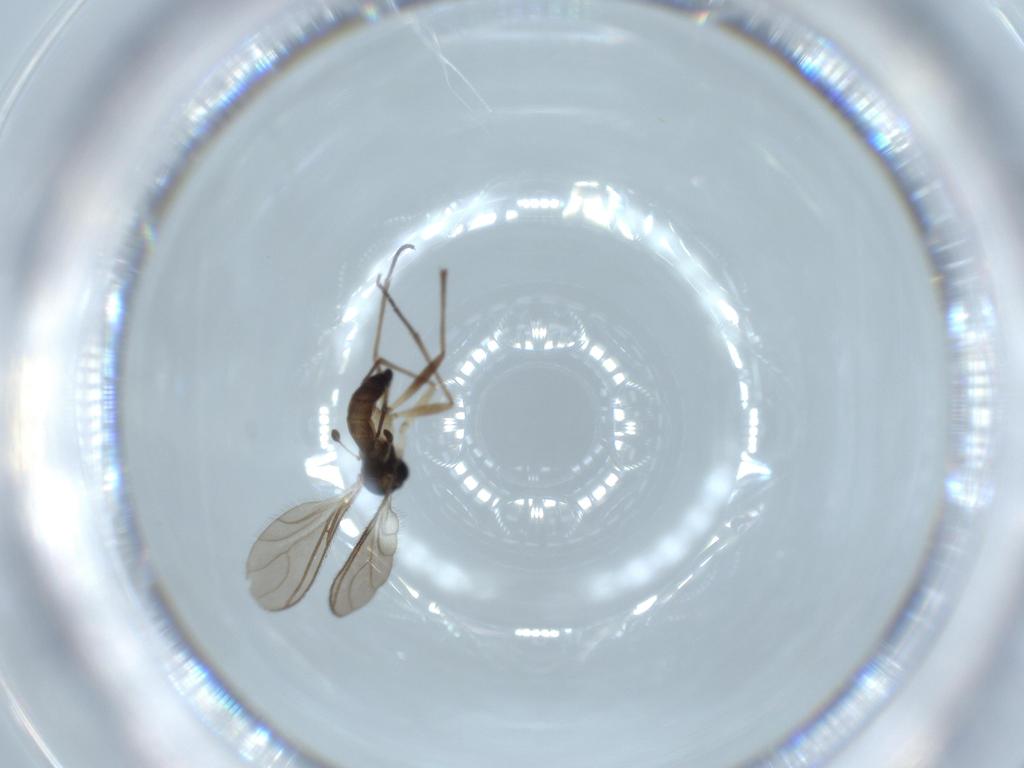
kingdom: Animalia
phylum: Arthropoda
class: Insecta
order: Diptera
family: Sciaridae
